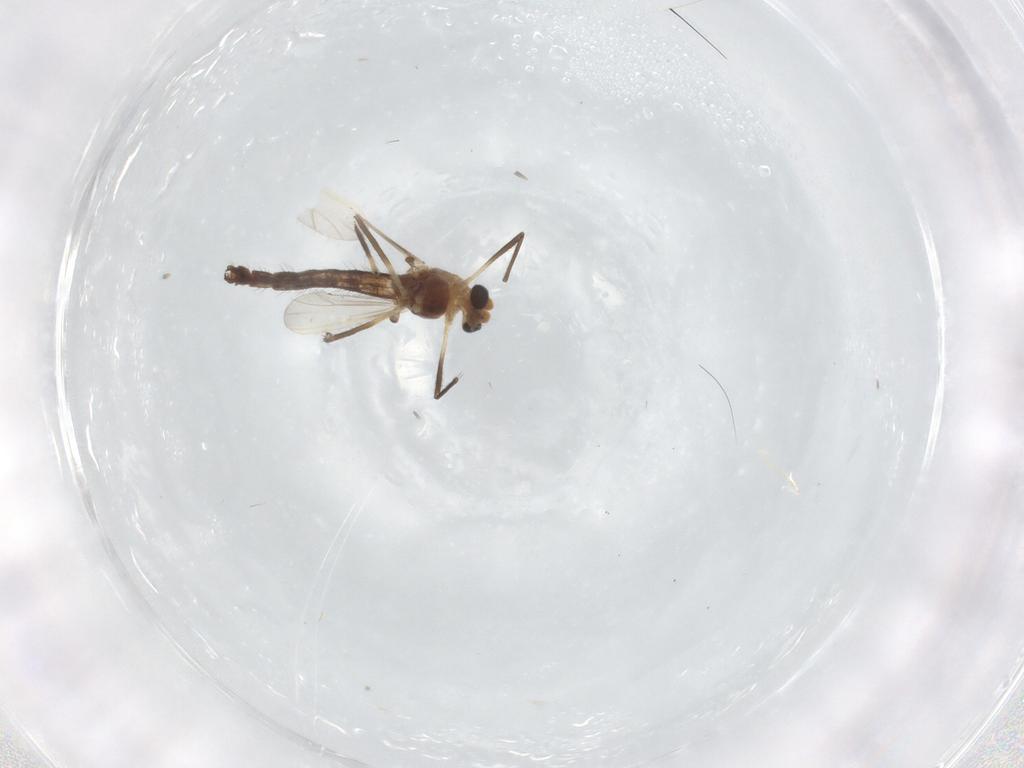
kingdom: Animalia
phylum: Arthropoda
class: Insecta
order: Diptera
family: Chironomidae
